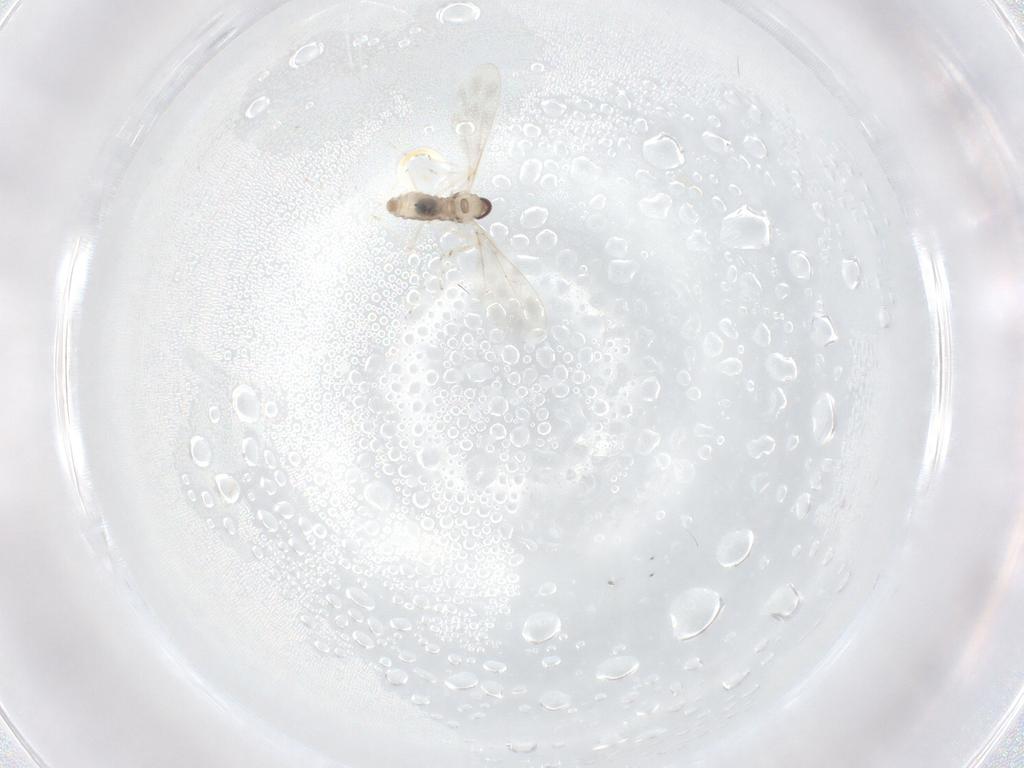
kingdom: Animalia
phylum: Arthropoda
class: Insecta
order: Diptera
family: Cecidomyiidae
